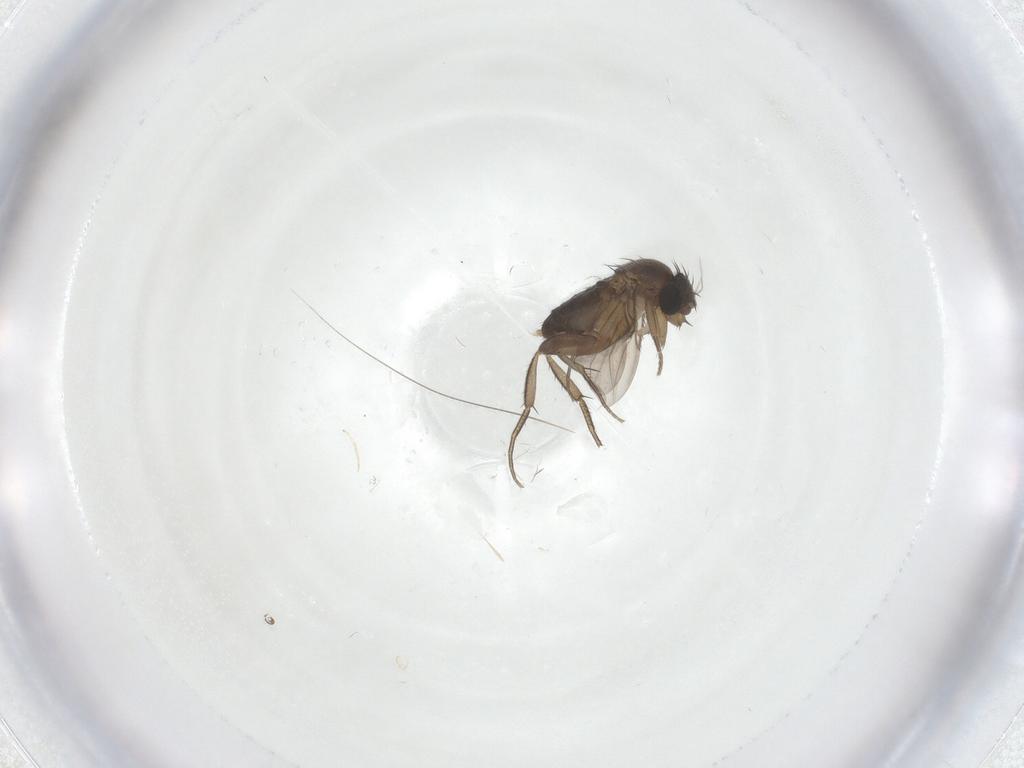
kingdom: Animalia
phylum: Arthropoda
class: Insecta
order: Diptera
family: Phoridae
